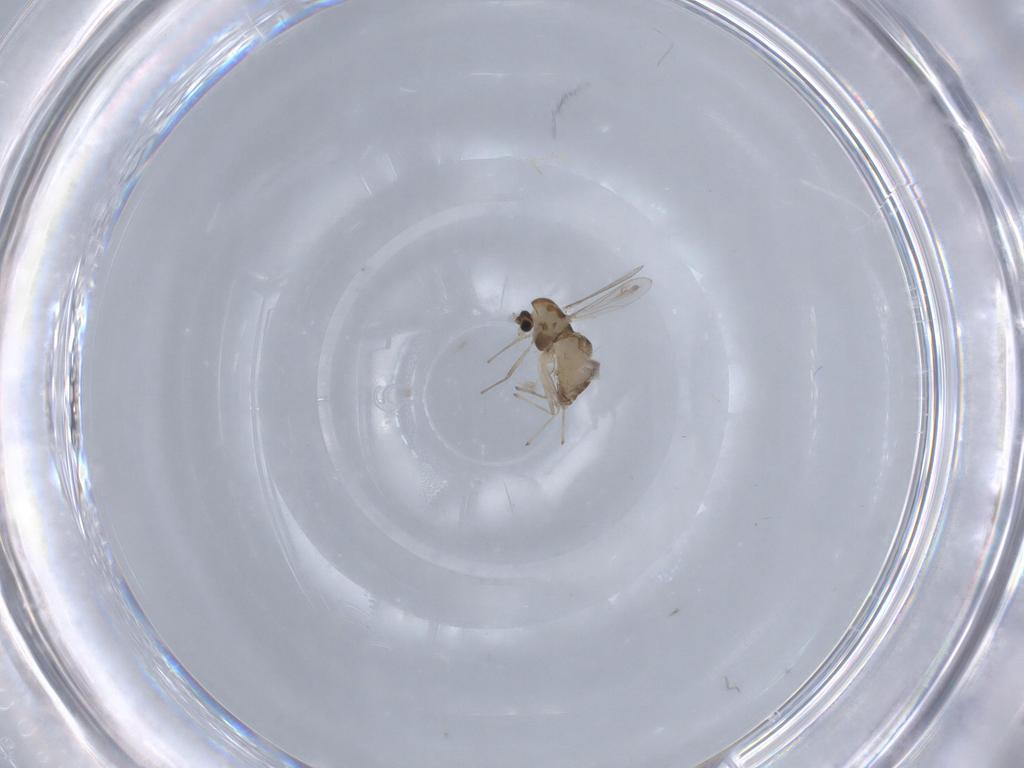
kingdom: Animalia
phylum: Arthropoda
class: Insecta
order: Diptera
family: Chironomidae
